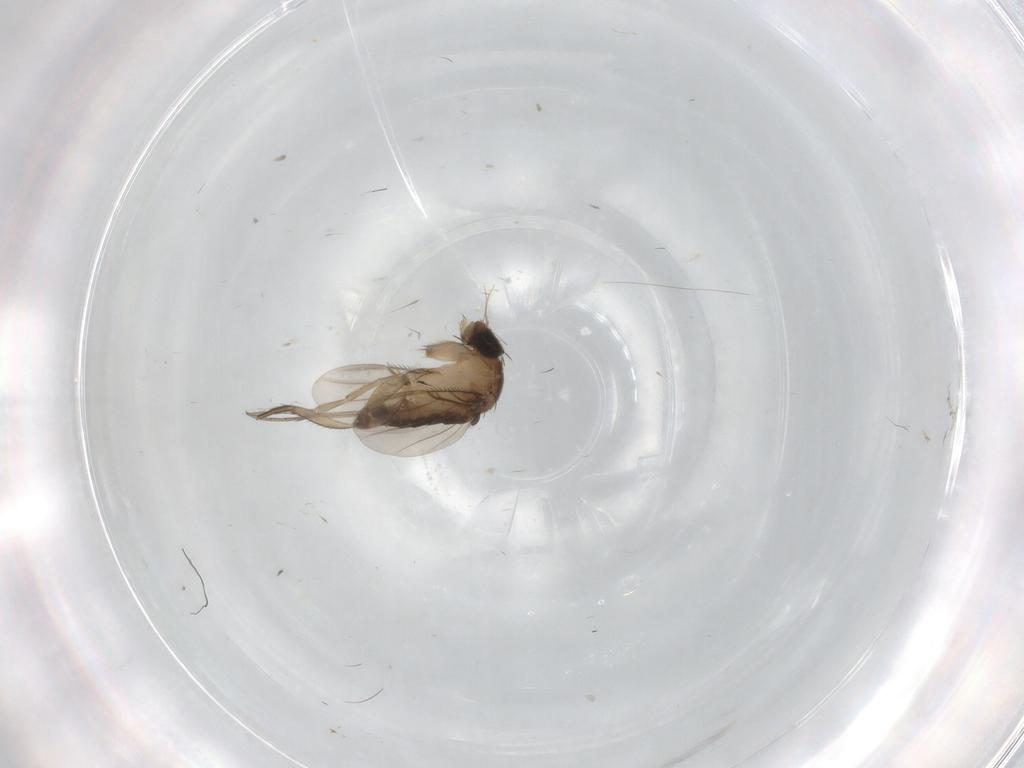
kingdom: Animalia
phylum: Arthropoda
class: Insecta
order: Diptera
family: Phoridae
